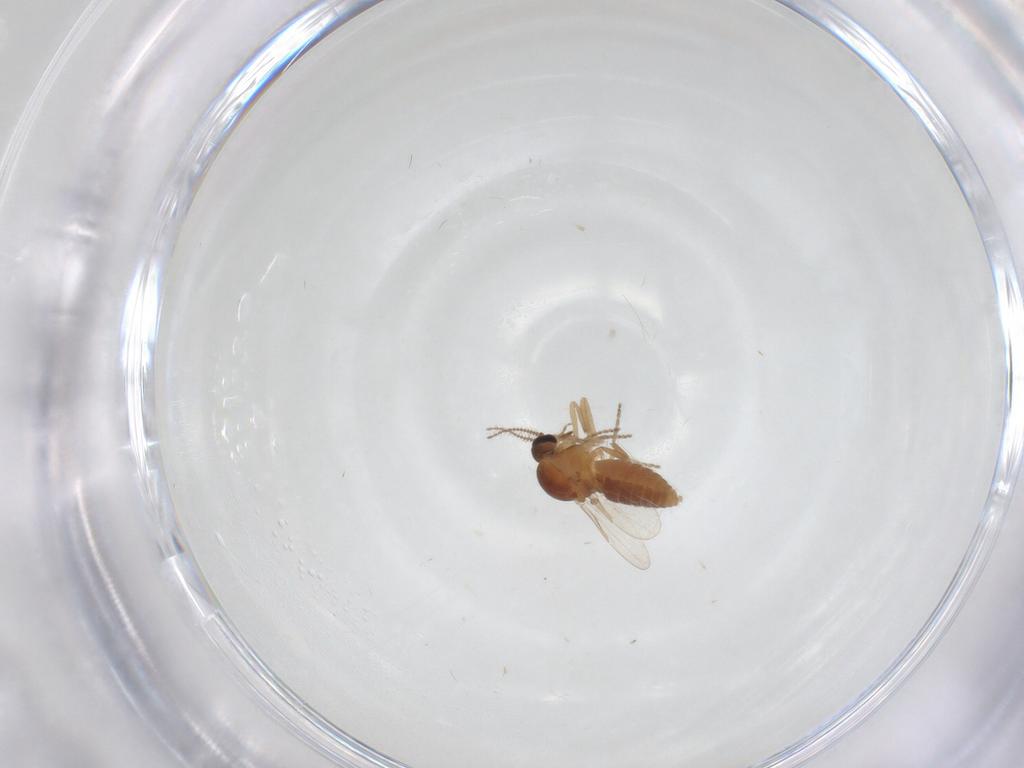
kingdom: Animalia
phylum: Arthropoda
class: Insecta
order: Diptera
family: Ceratopogonidae
